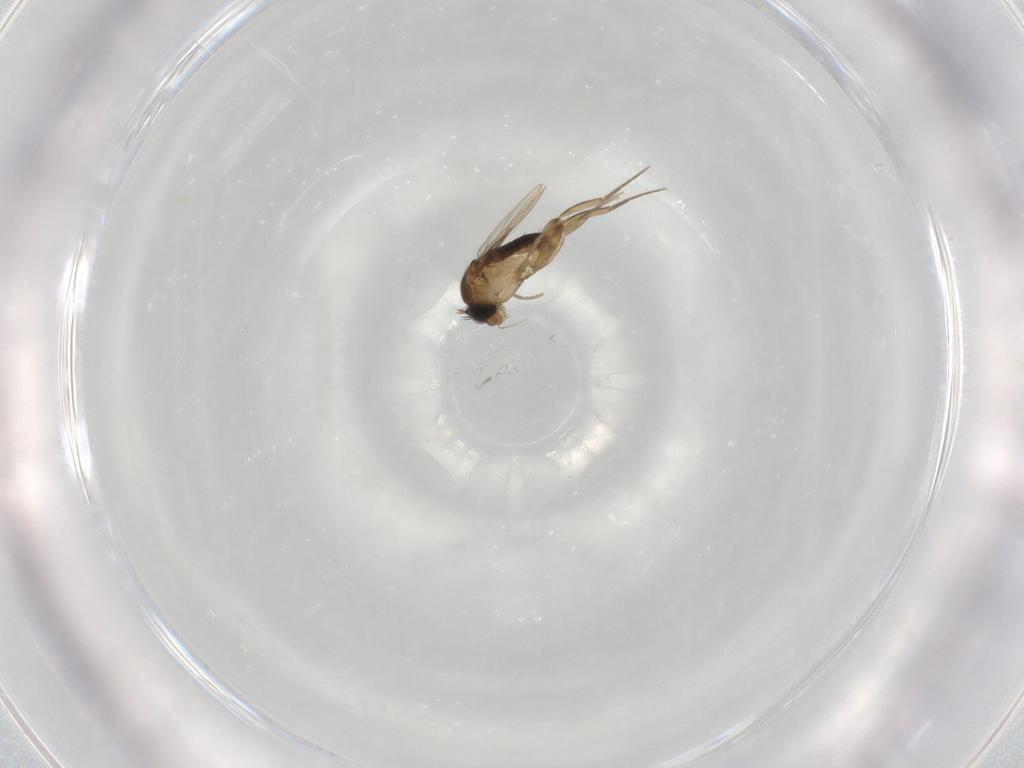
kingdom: Animalia
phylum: Arthropoda
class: Insecta
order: Diptera
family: Phoridae
